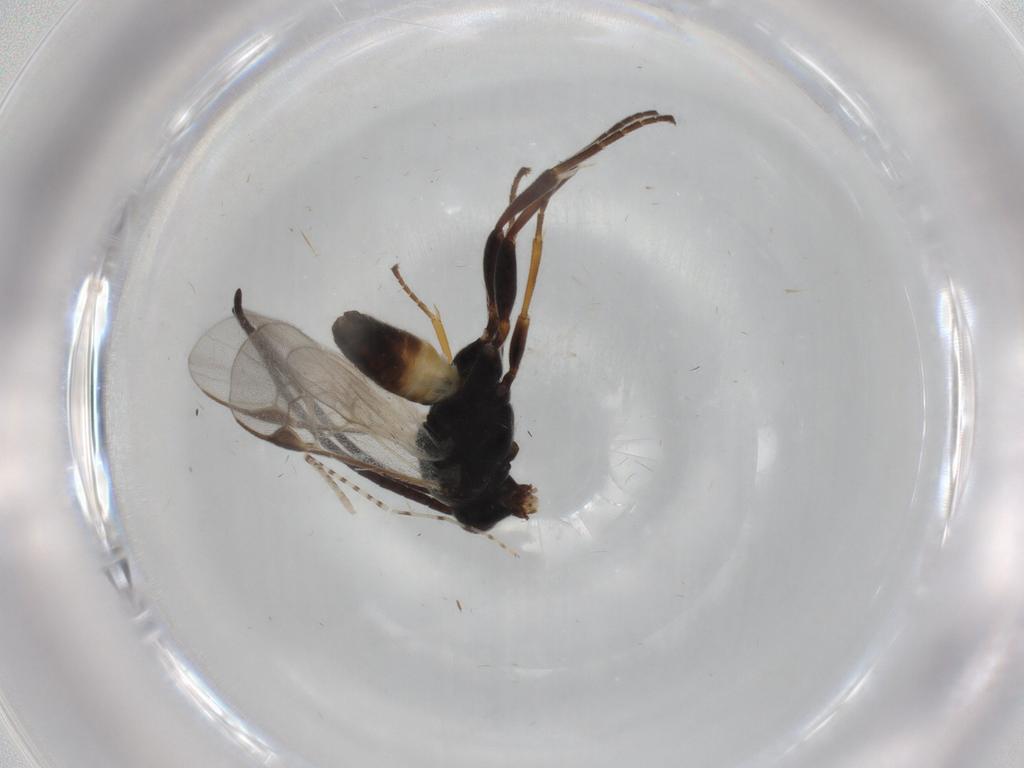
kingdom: Animalia
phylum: Arthropoda
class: Insecta
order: Hymenoptera
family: Braconidae
